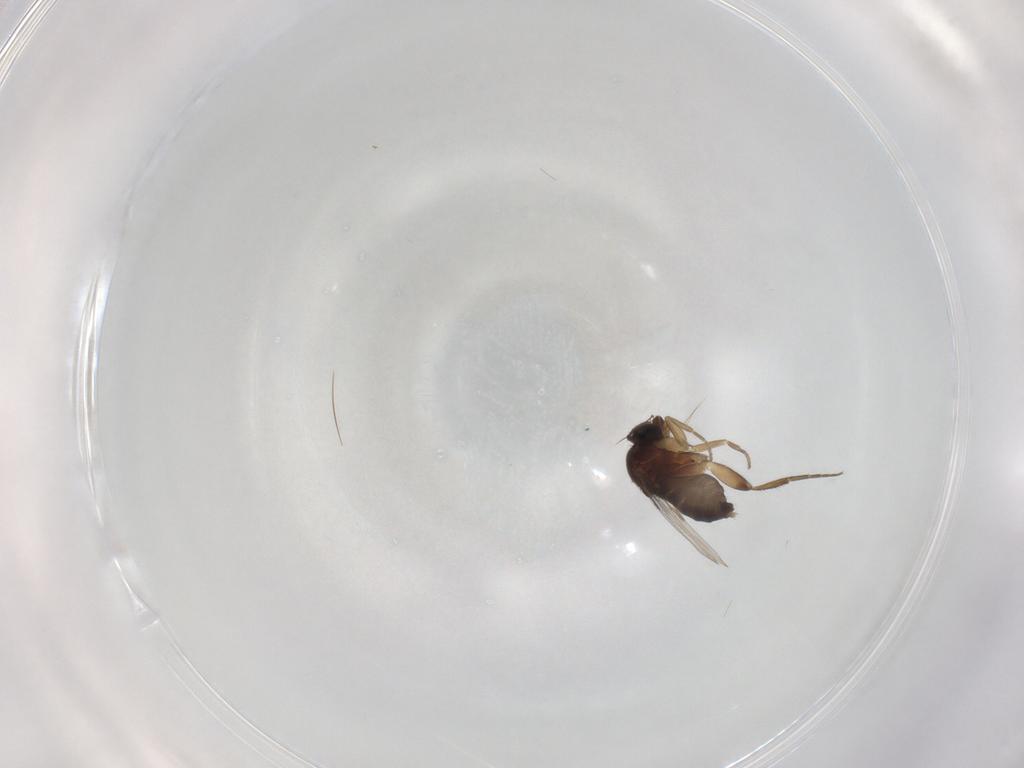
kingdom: Animalia
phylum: Arthropoda
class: Insecta
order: Diptera
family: Phoridae
